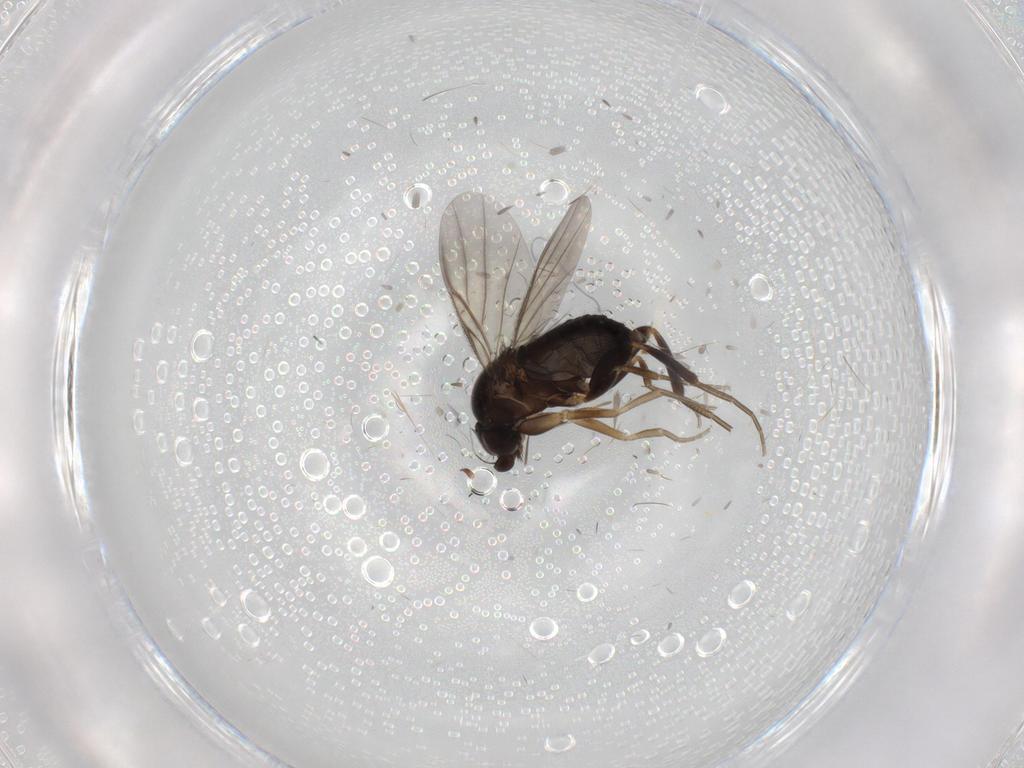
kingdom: Animalia
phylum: Arthropoda
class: Insecta
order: Diptera
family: Cecidomyiidae
